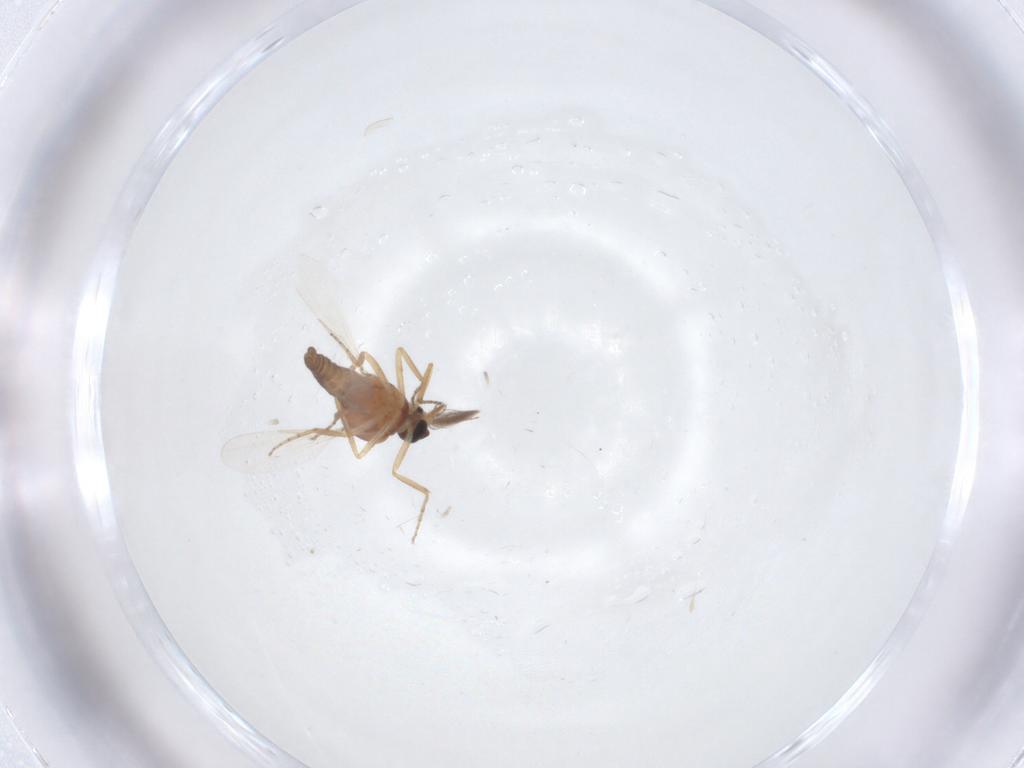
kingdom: Animalia
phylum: Arthropoda
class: Insecta
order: Diptera
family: Ceratopogonidae
